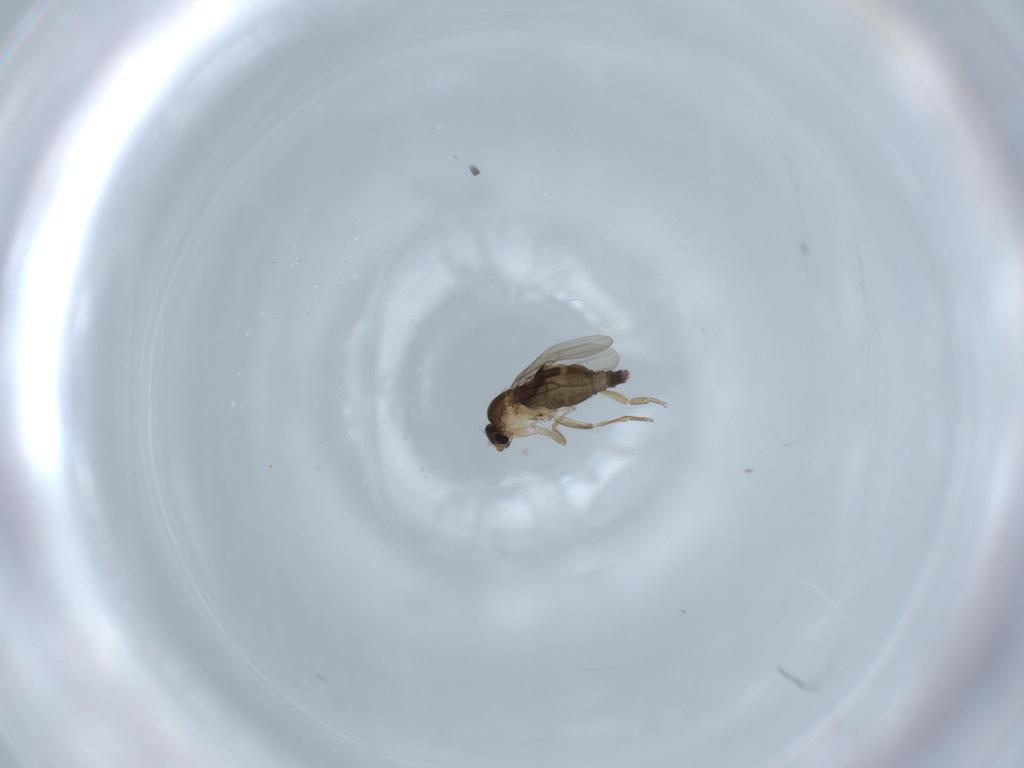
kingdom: Animalia
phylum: Arthropoda
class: Insecta
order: Diptera
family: Phoridae
